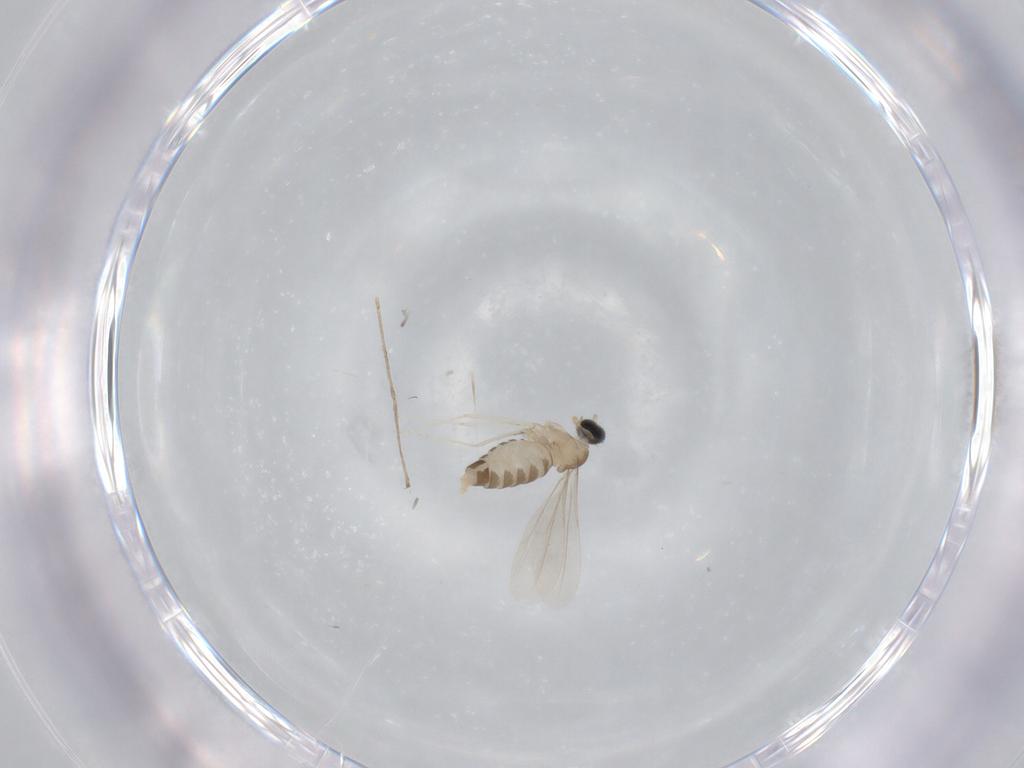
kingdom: Animalia
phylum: Arthropoda
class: Insecta
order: Diptera
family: Cecidomyiidae
